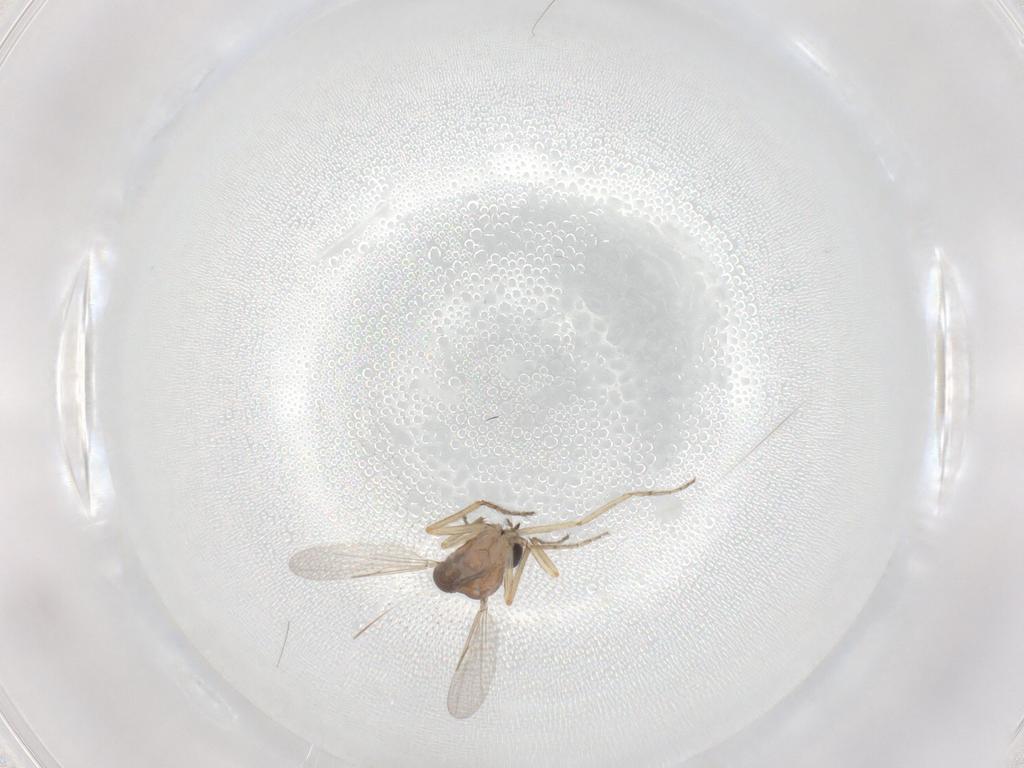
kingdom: Animalia
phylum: Arthropoda
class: Insecta
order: Diptera
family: Ceratopogonidae
